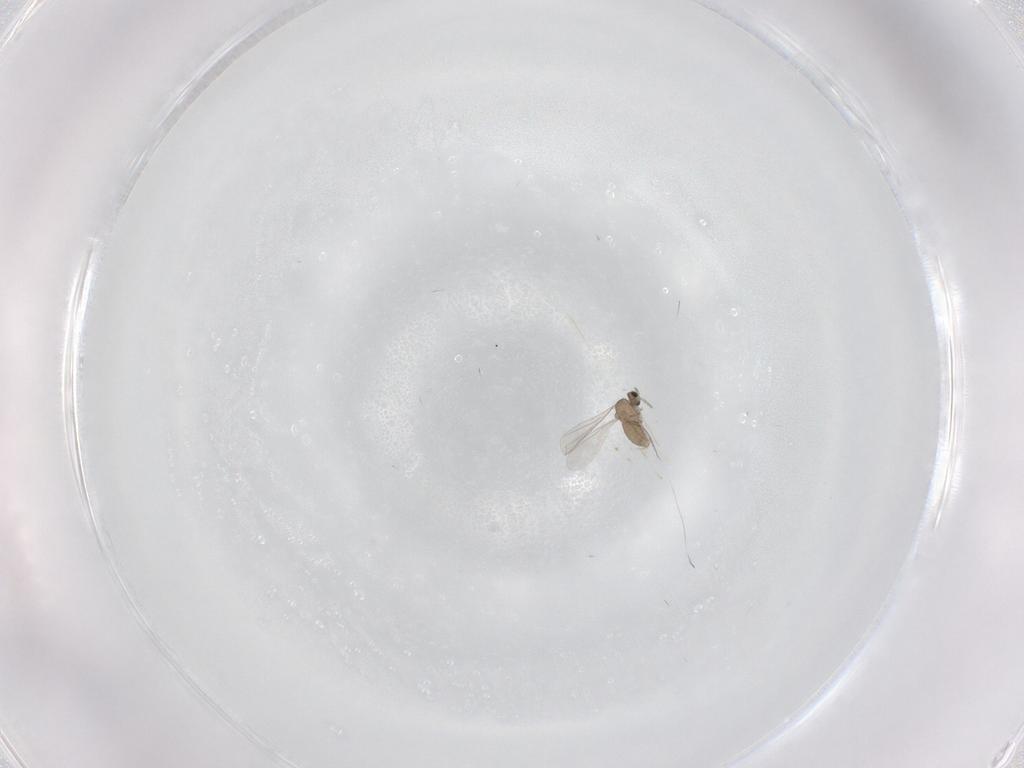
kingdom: Animalia
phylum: Arthropoda
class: Insecta
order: Diptera
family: Cecidomyiidae
